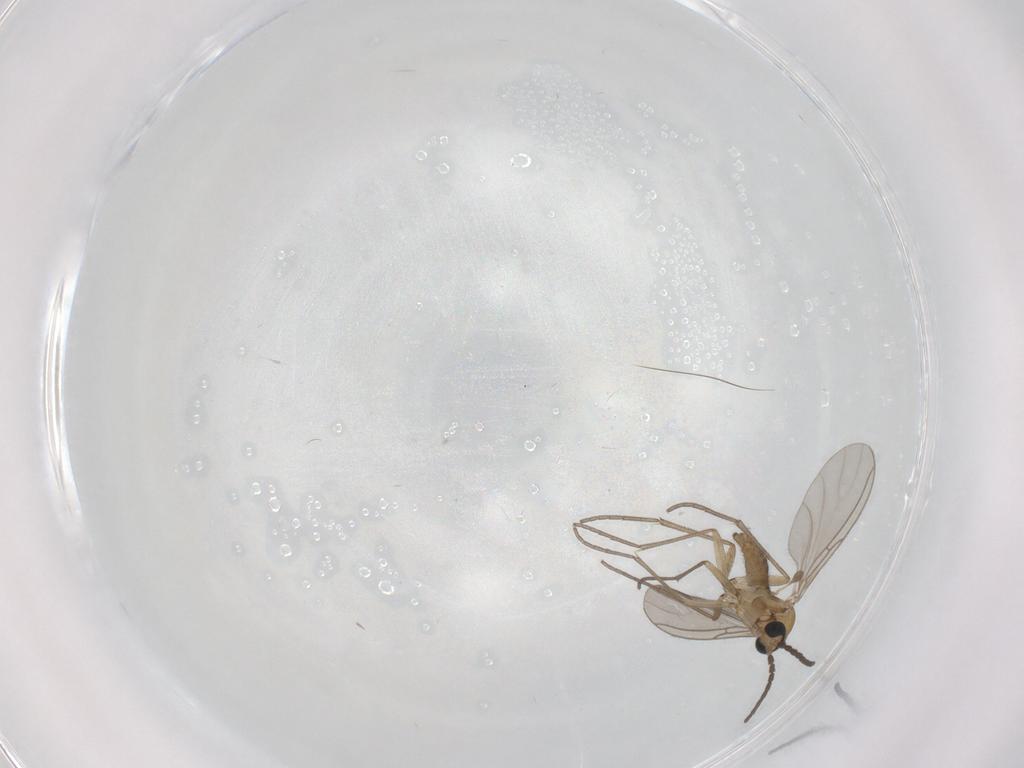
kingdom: Animalia
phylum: Arthropoda
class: Insecta
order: Diptera
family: Sciaridae
